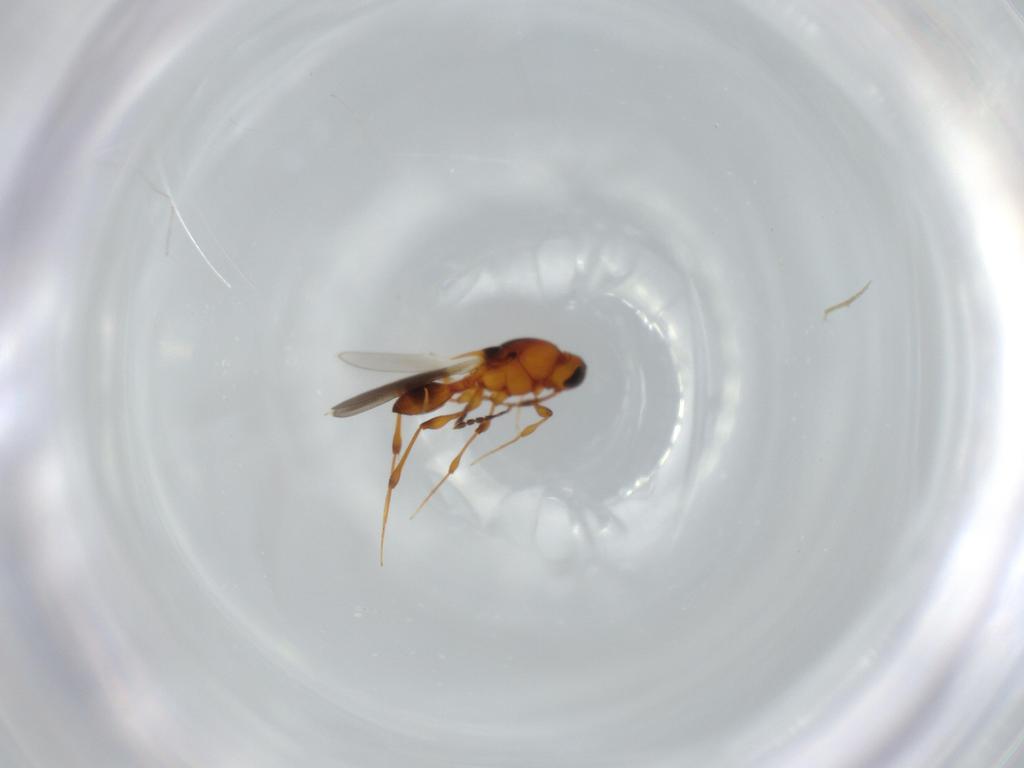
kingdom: Animalia
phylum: Arthropoda
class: Insecta
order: Hymenoptera
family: Platygastridae
